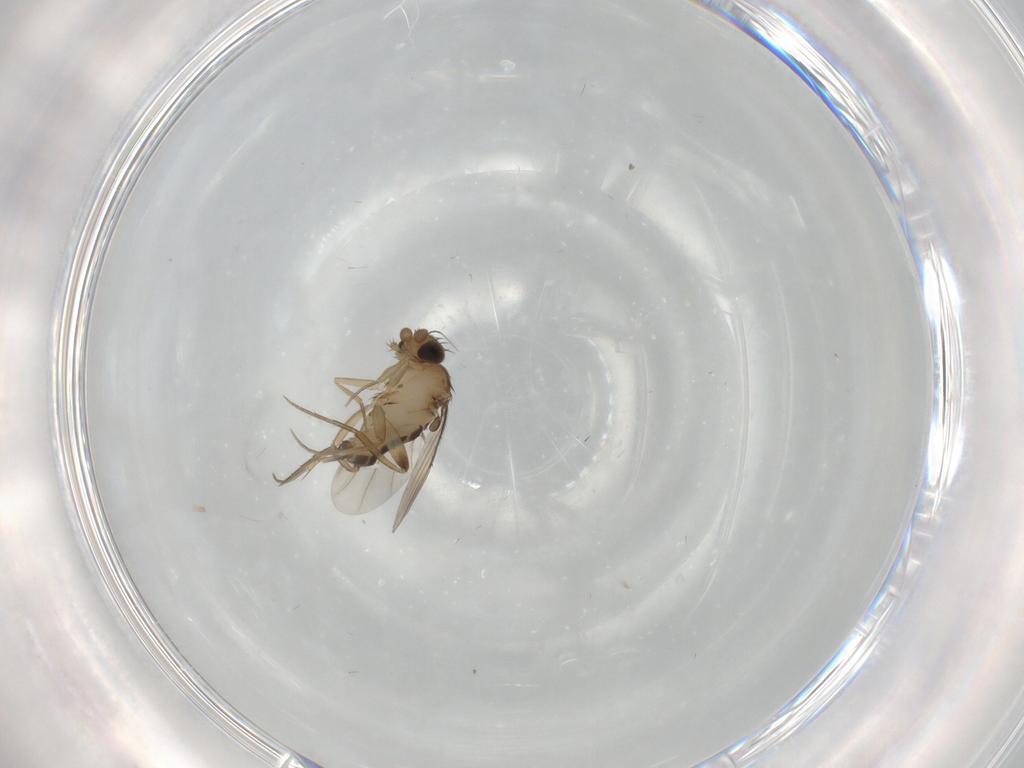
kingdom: Animalia
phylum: Arthropoda
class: Insecta
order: Diptera
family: Phoridae
